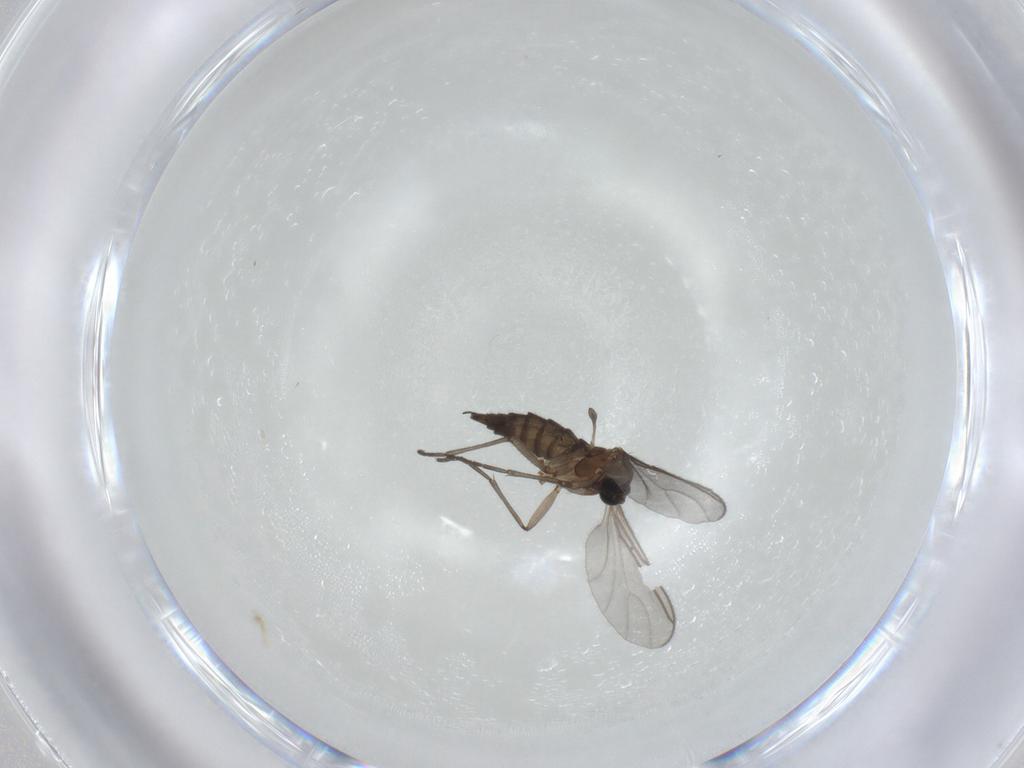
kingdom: Animalia
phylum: Arthropoda
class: Insecta
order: Diptera
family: Sciaridae
